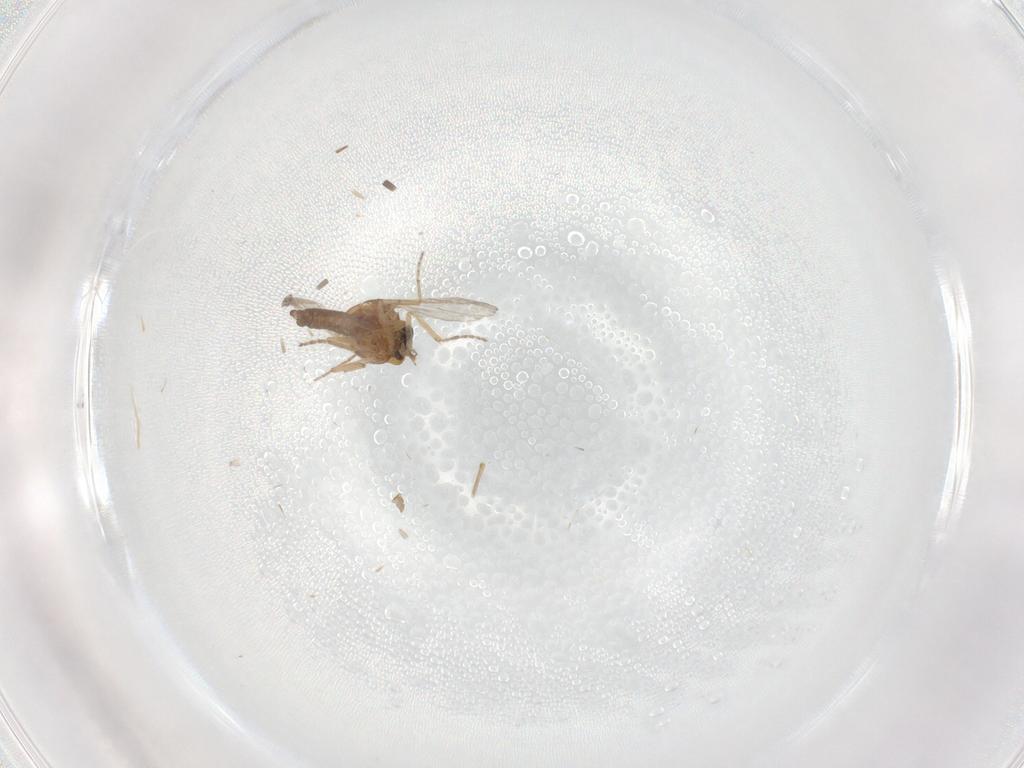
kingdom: Animalia
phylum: Arthropoda
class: Insecta
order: Diptera
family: Ceratopogonidae
